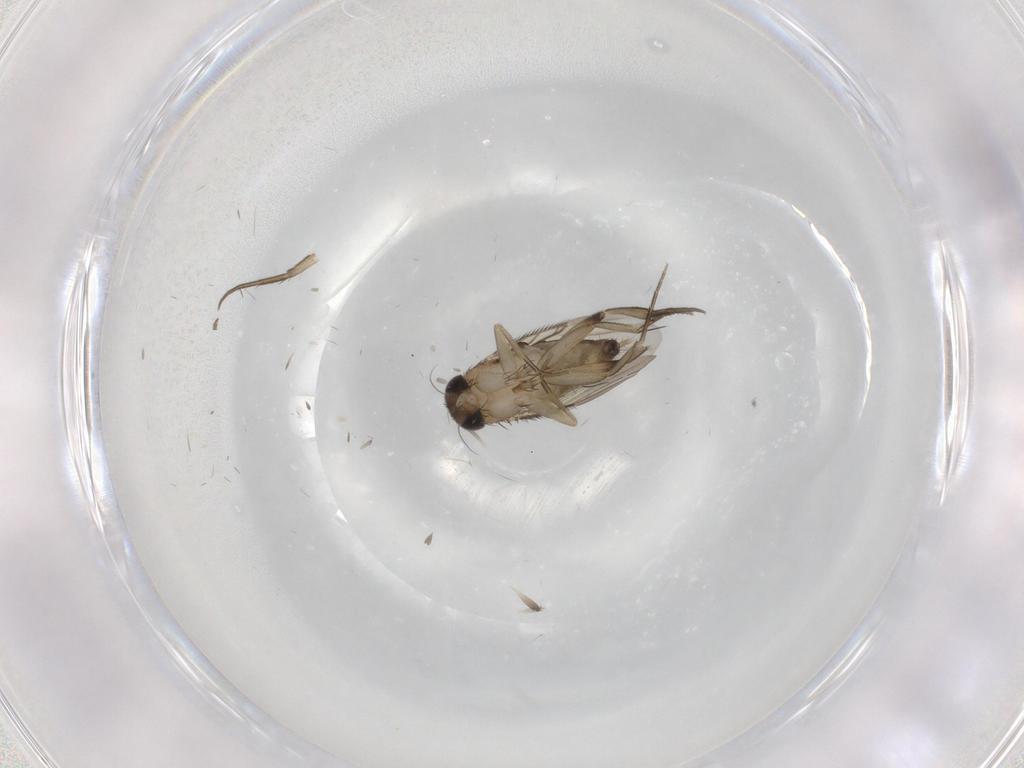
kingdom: Animalia
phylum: Arthropoda
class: Insecta
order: Diptera
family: Phoridae
